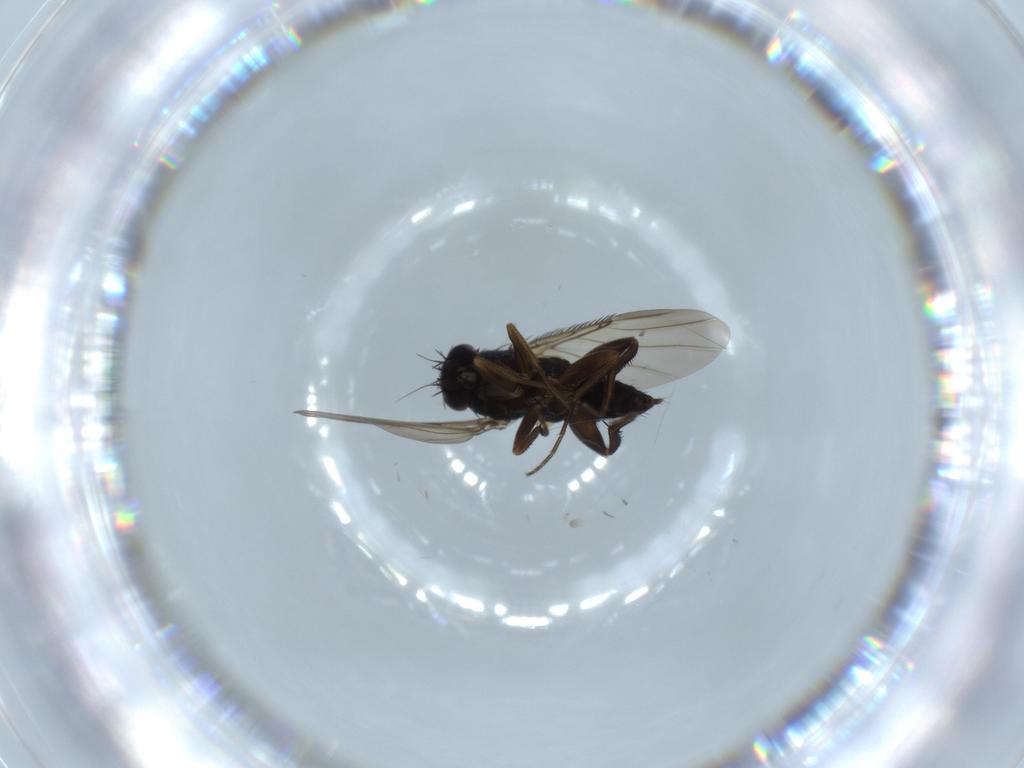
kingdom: Animalia
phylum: Arthropoda
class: Insecta
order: Diptera
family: Phoridae
